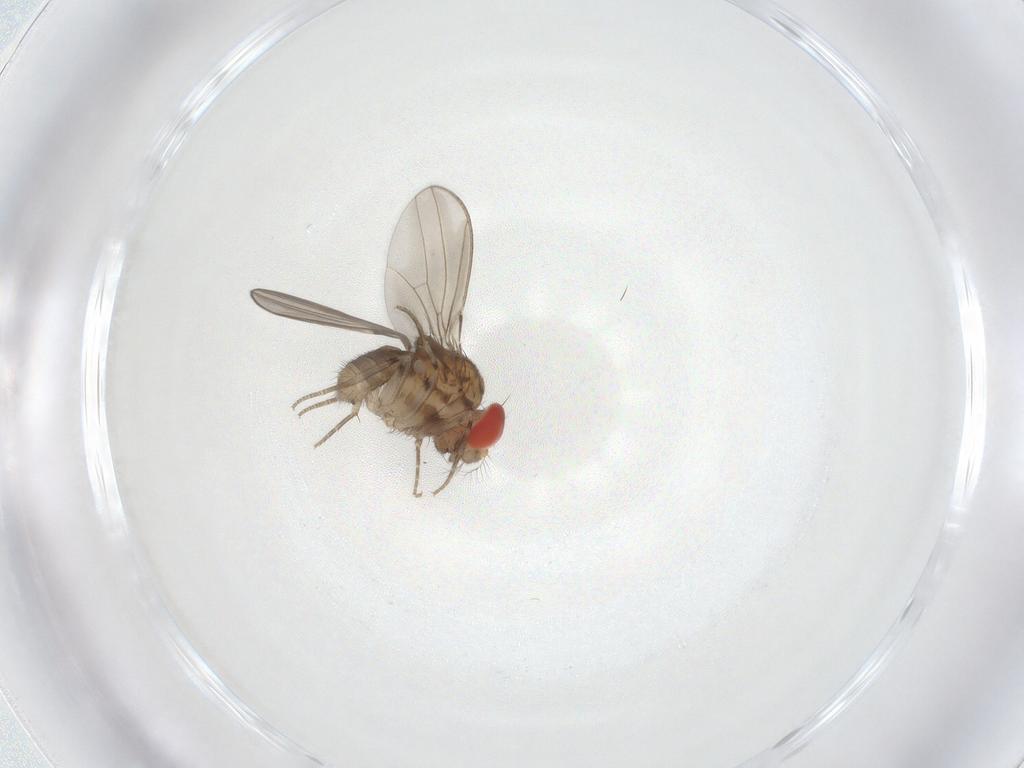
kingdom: Animalia
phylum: Arthropoda
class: Insecta
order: Diptera
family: Drosophilidae
